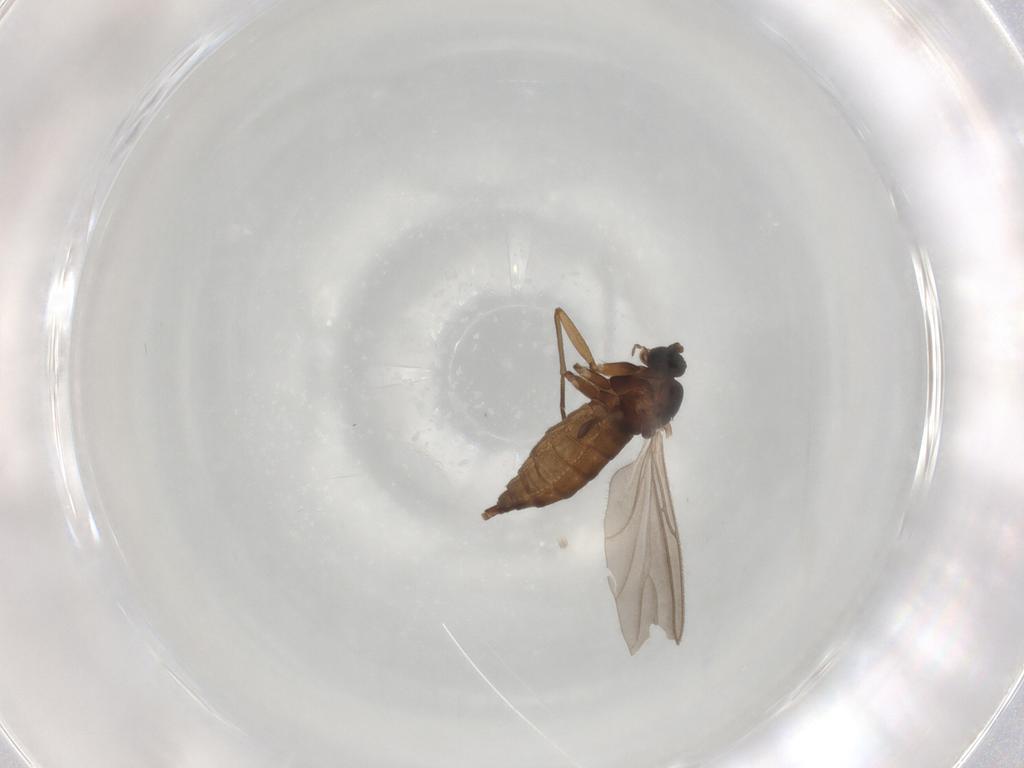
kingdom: Animalia
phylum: Arthropoda
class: Insecta
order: Diptera
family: Sciaridae
